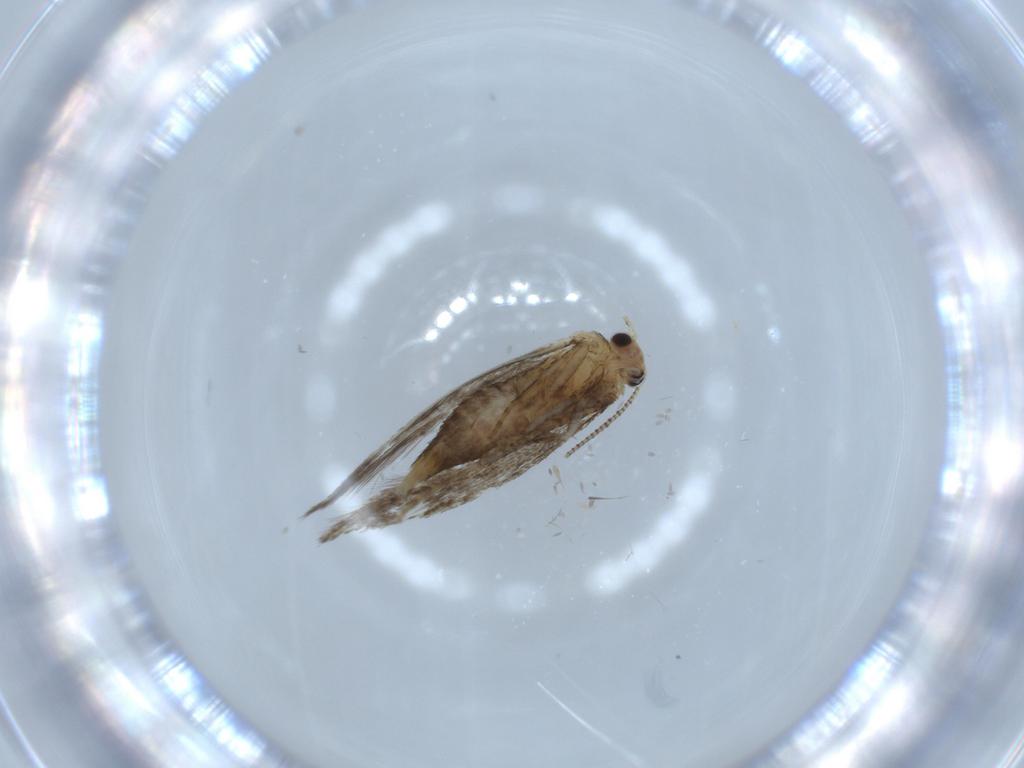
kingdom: Animalia
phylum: Arthropoda
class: Insecta
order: Lepidoptera
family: Tineidae
